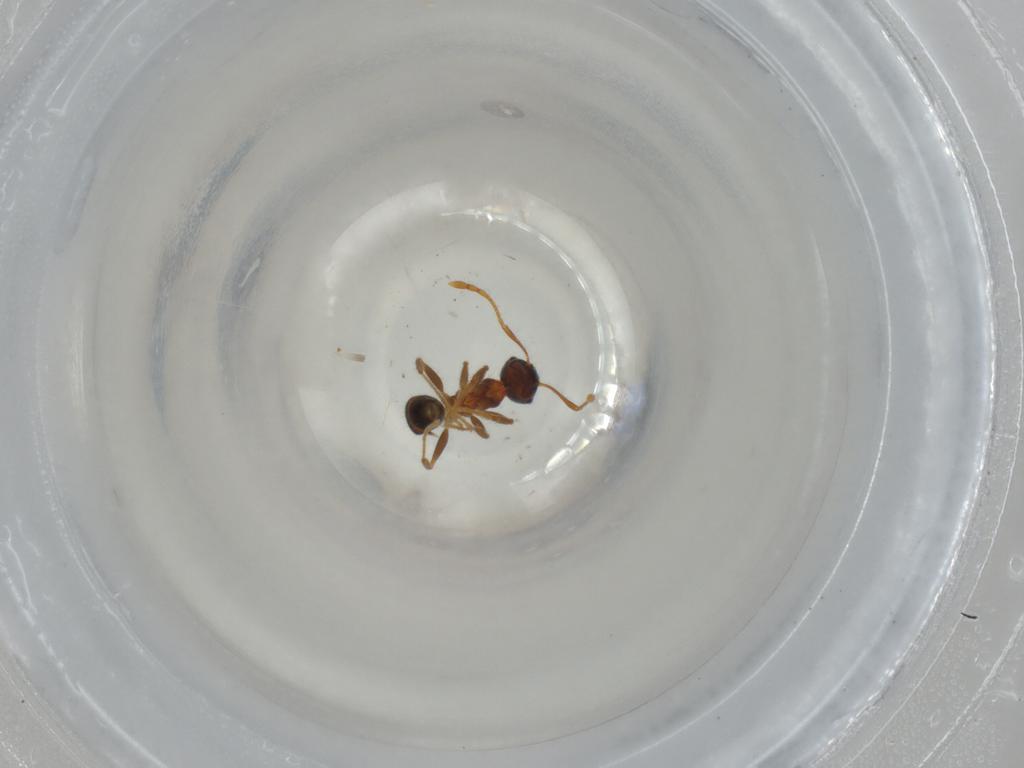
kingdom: Animalia
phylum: Arthropoda
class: Insecta
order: Hymenoptera
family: Formicidae
